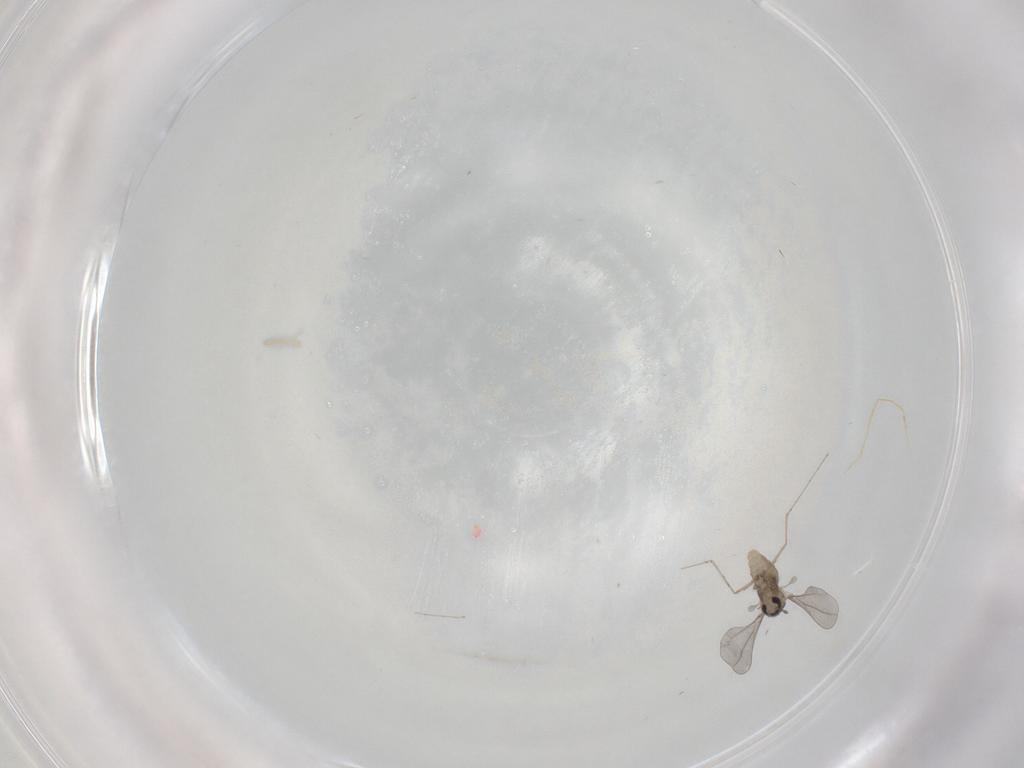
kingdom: Animalia
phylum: Arthropoda
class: Insecta
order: Diptera
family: Cecidomyiidae
